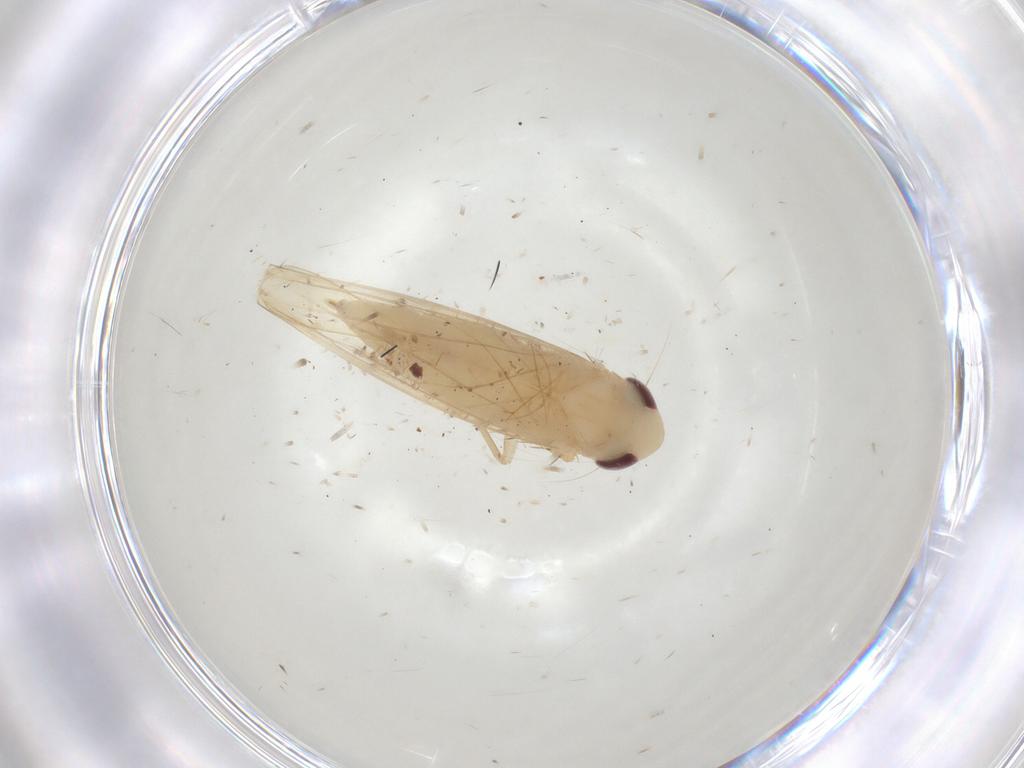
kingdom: Animalia
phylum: Arthropoda
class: Insecta
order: Hemiptera
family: Cicadellidae
